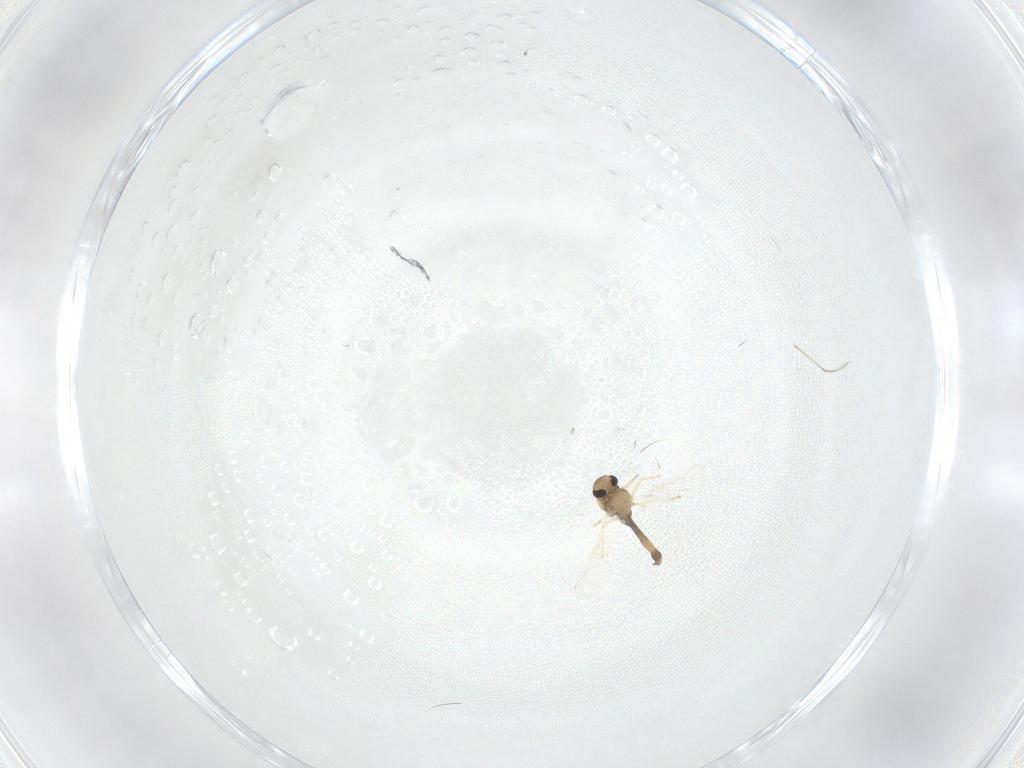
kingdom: Animalia
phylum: Arthropoda
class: Insecta
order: Diptera
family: Chironomidae
